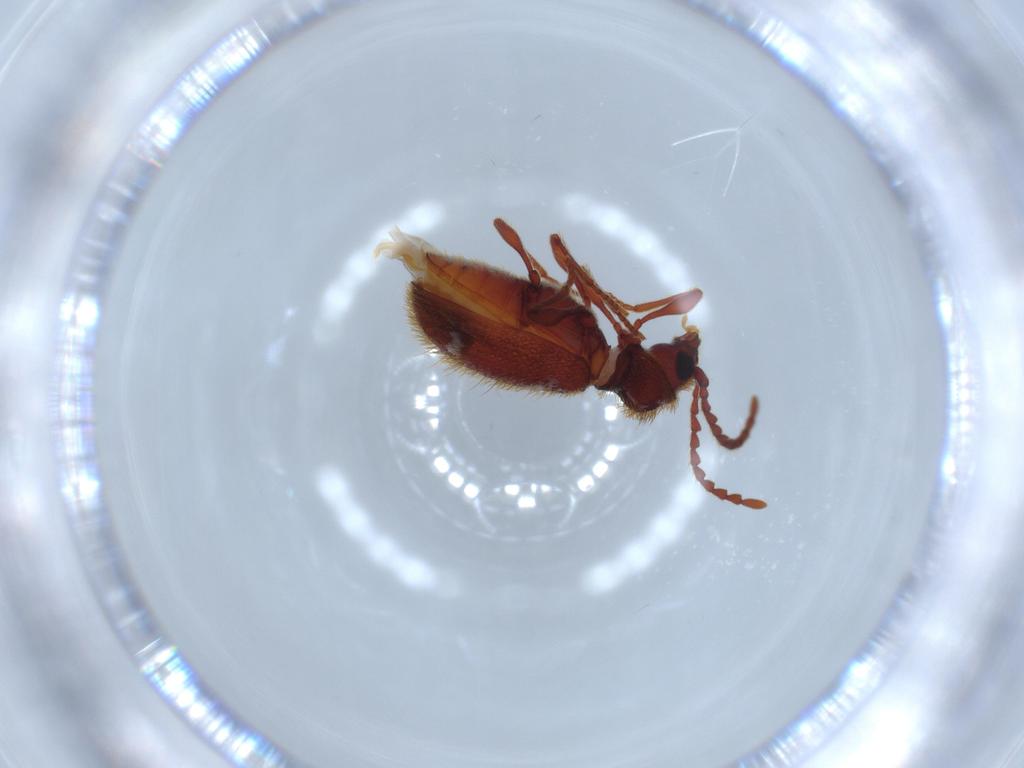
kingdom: Animalia
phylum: Arthropoda
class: Insecta
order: Coleoptera
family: Ptinidae
